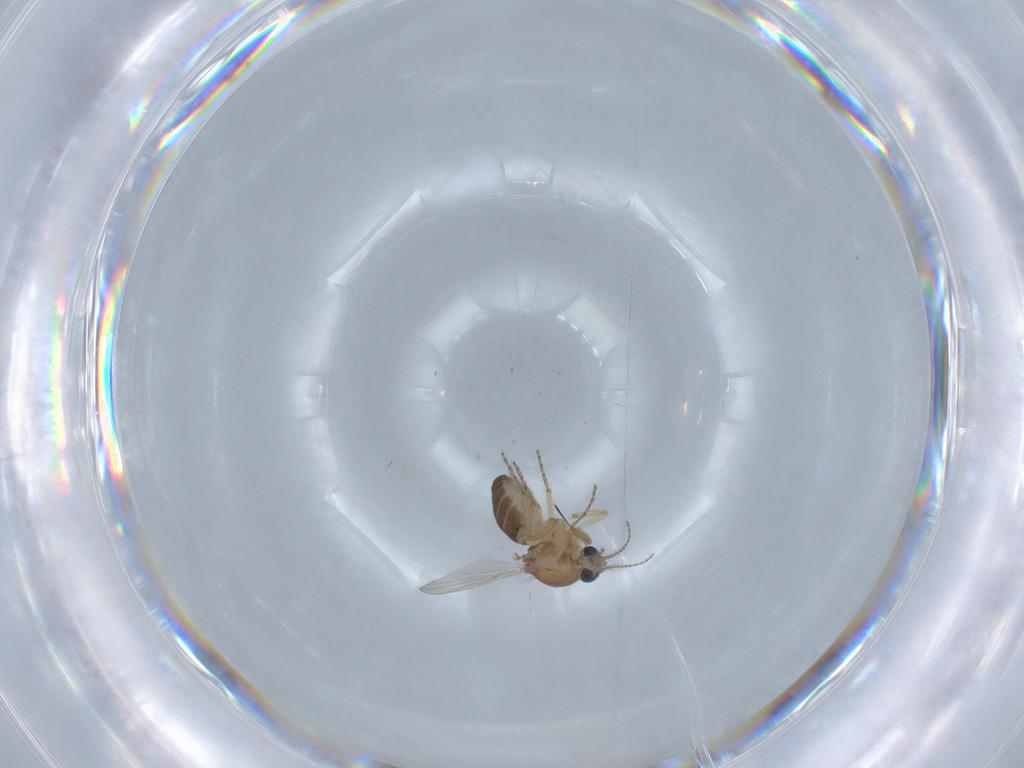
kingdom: Animalia
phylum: Arthropoda
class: Insecta
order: Diptera
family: Ceratopogonidae
